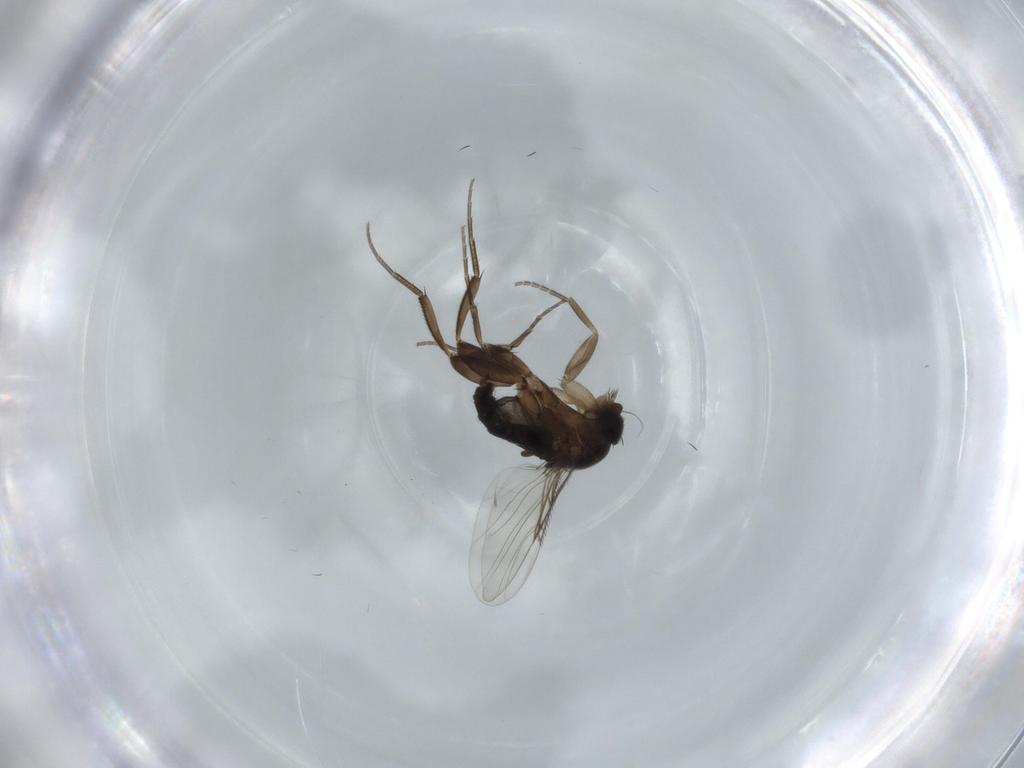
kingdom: Animalia
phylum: Arthropoda
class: Insecta
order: Diptera
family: Phoridae
